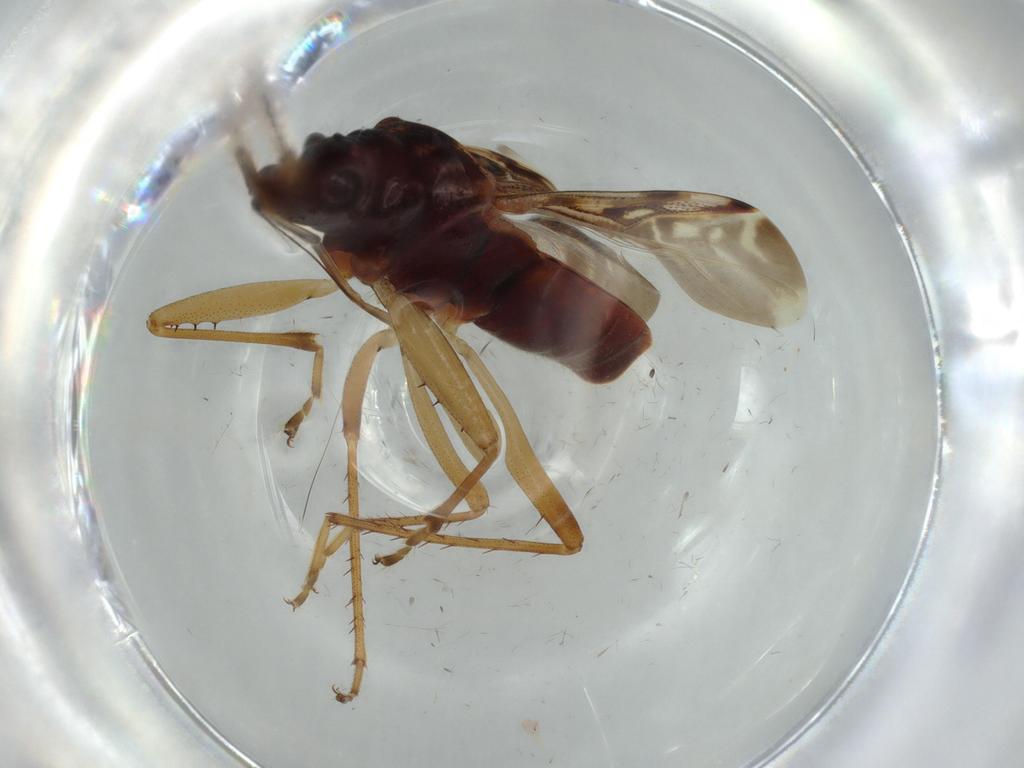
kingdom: Animalia
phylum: Arthropoda
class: Insecta
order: Hemiptera
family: Rhyparochromidae
